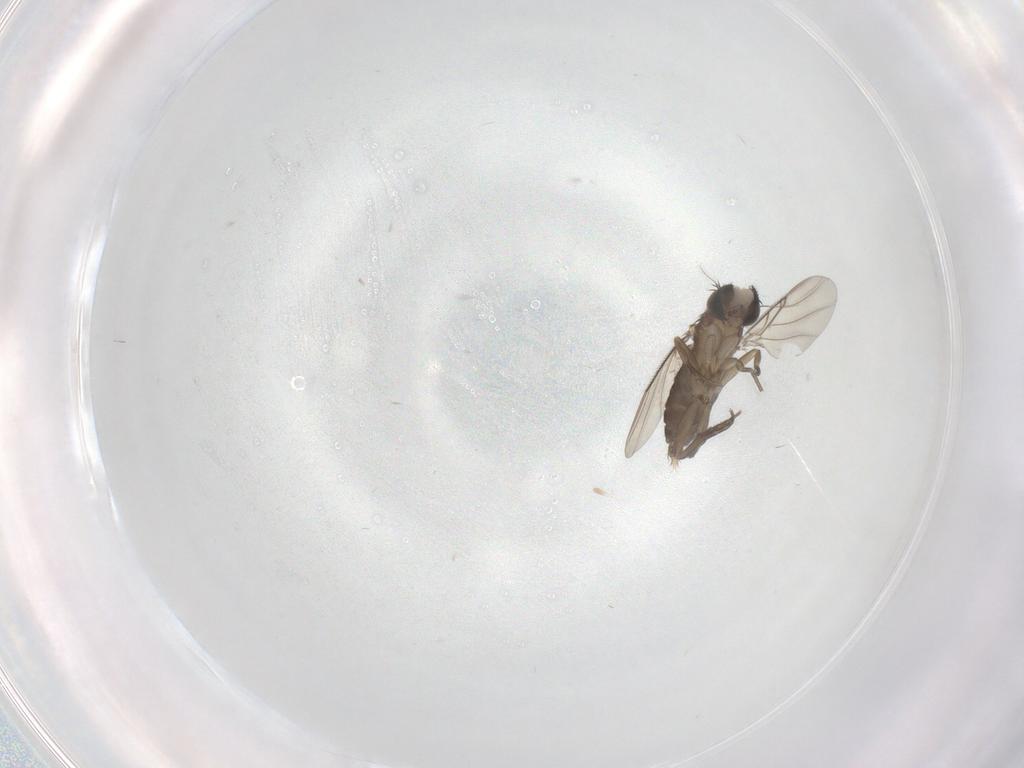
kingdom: Animalia
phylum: Arthropoda
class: Insecta
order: Diptera
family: Phoridae
